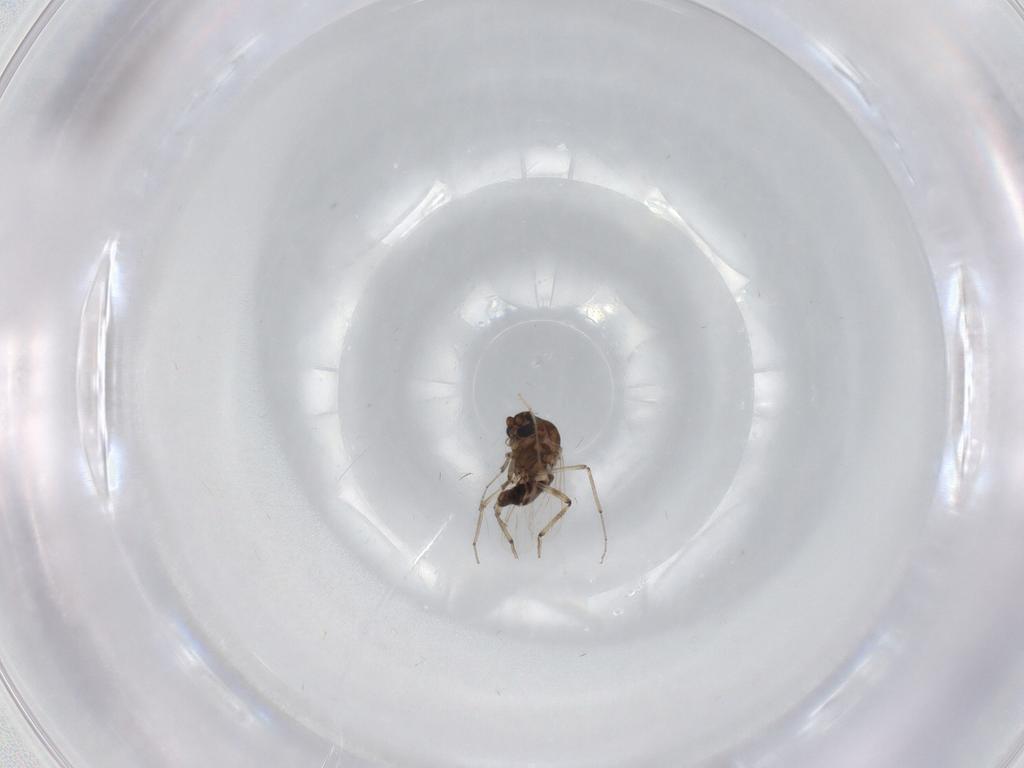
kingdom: Animalia
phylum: Arthropoda
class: Insecta
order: Diptera
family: Ceratopogonidae
